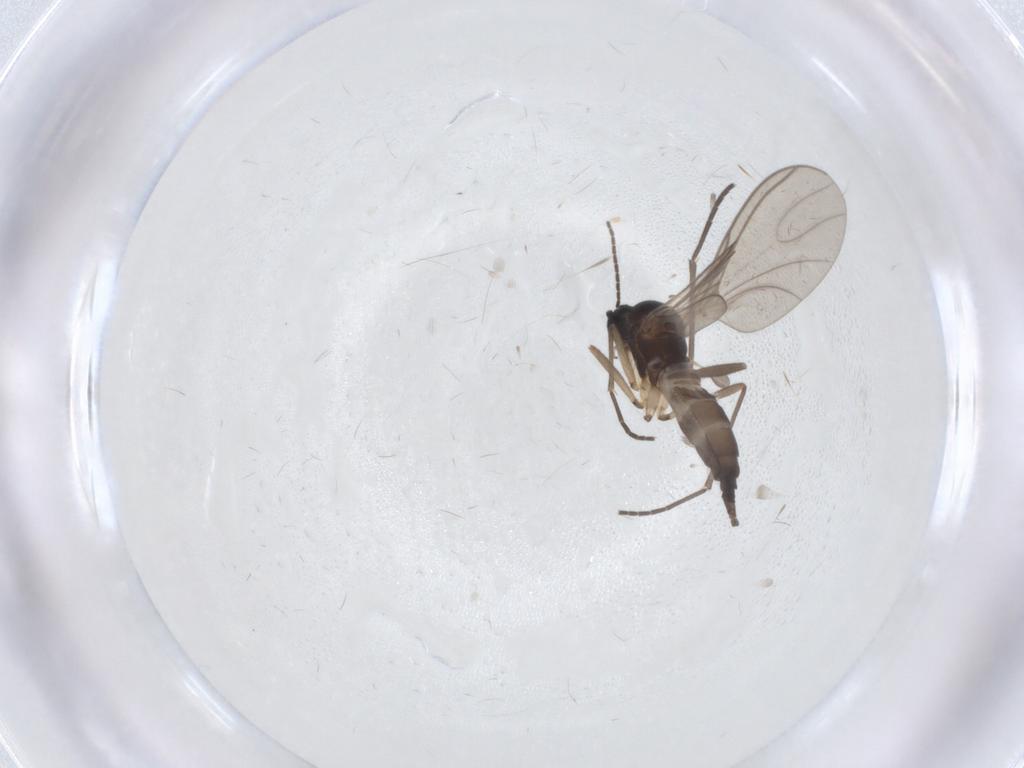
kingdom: Animalia
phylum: Arthropoda
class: Insecta
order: Diptera
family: Sciaridae
